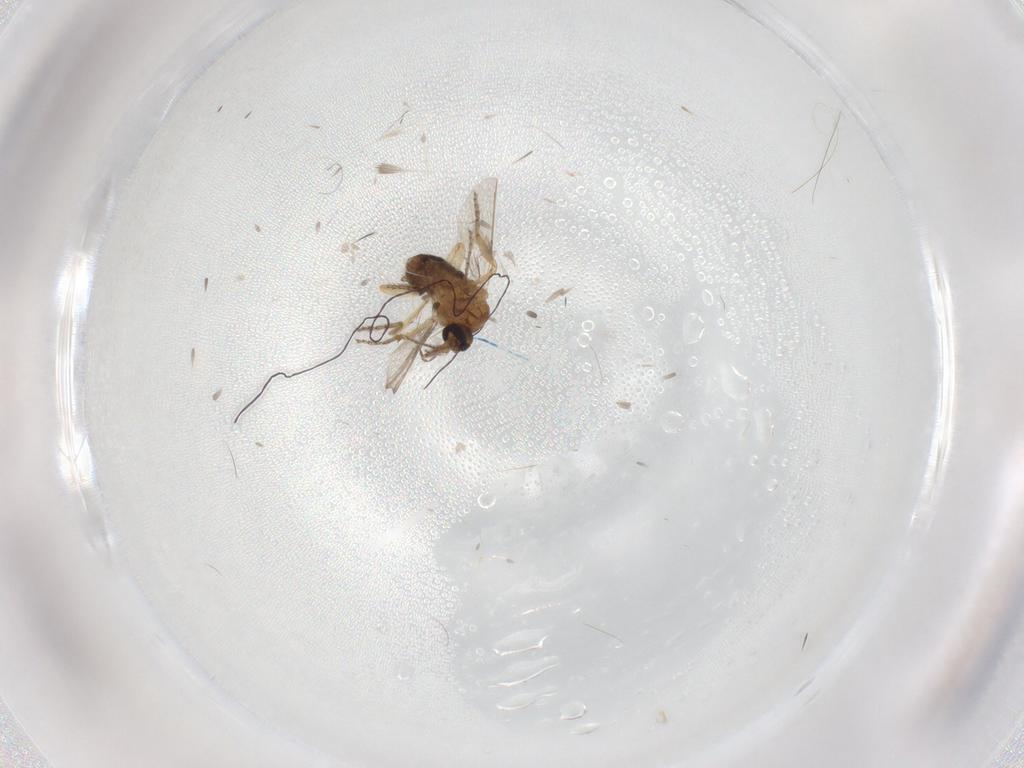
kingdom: Animalia
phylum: Arthropoda
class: Insecta
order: Diptera
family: Ceratopogonidae
